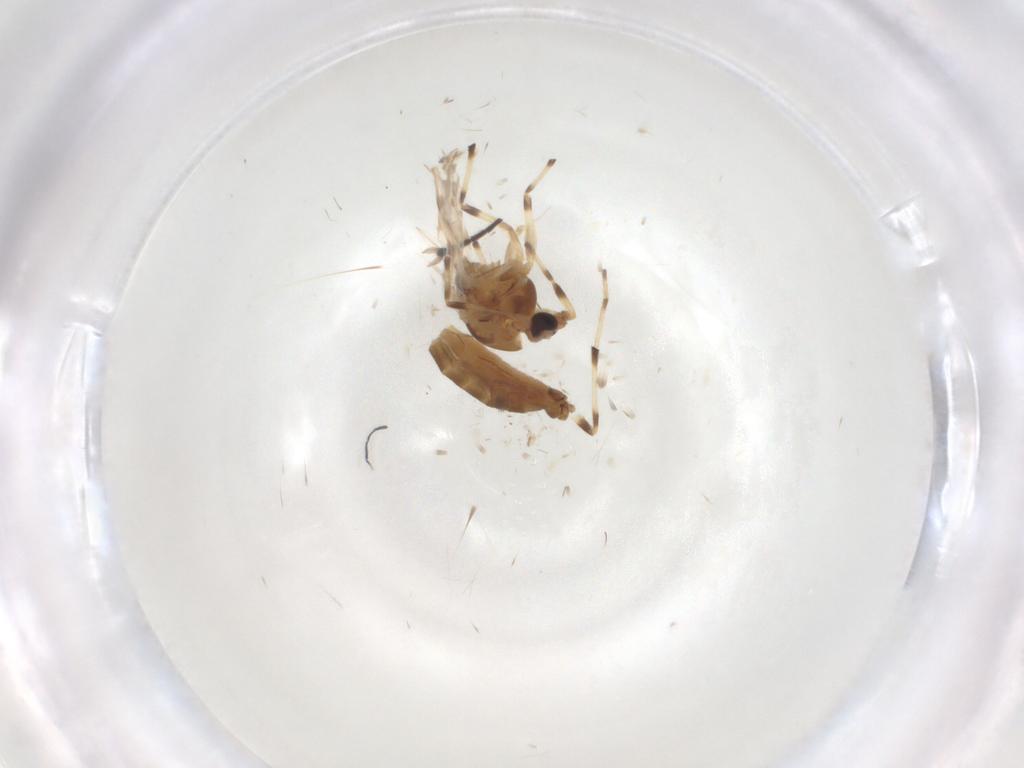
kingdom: Animalia
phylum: Arthropoda
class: Insecta
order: Diptera
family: Chironomidae
